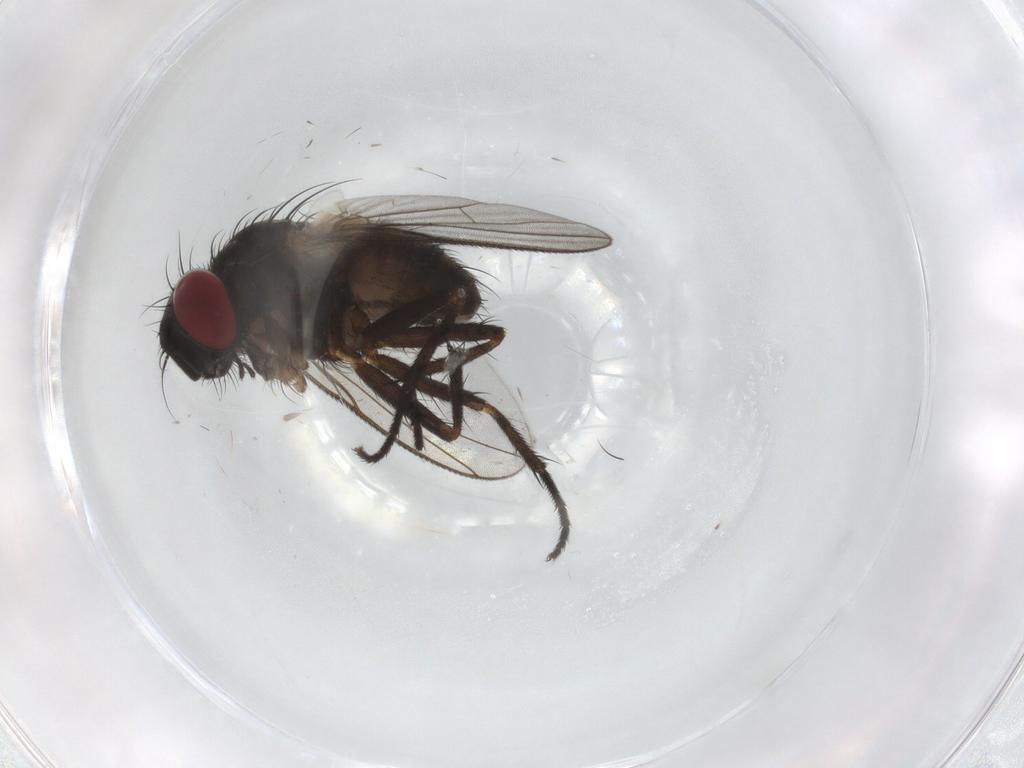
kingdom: Animalia
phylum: Arthropoda
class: Insecta
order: Diptera
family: Muscidae
